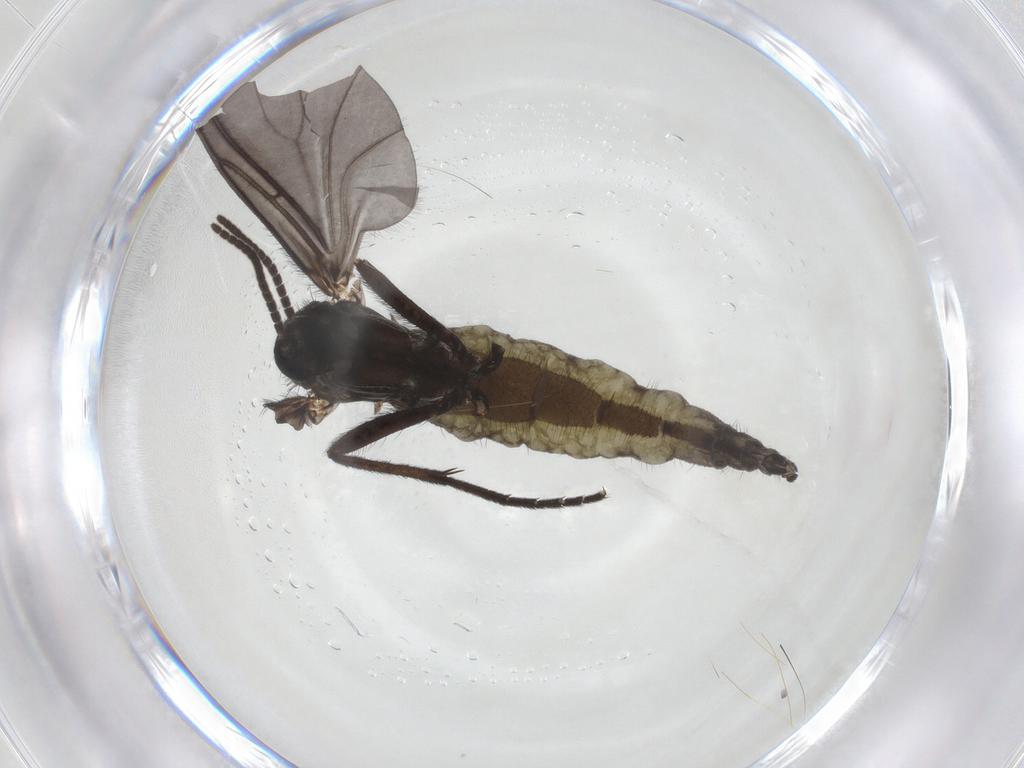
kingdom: Animalia
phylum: Arthropoda
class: Insecta
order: Diptera
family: Sciaridae
